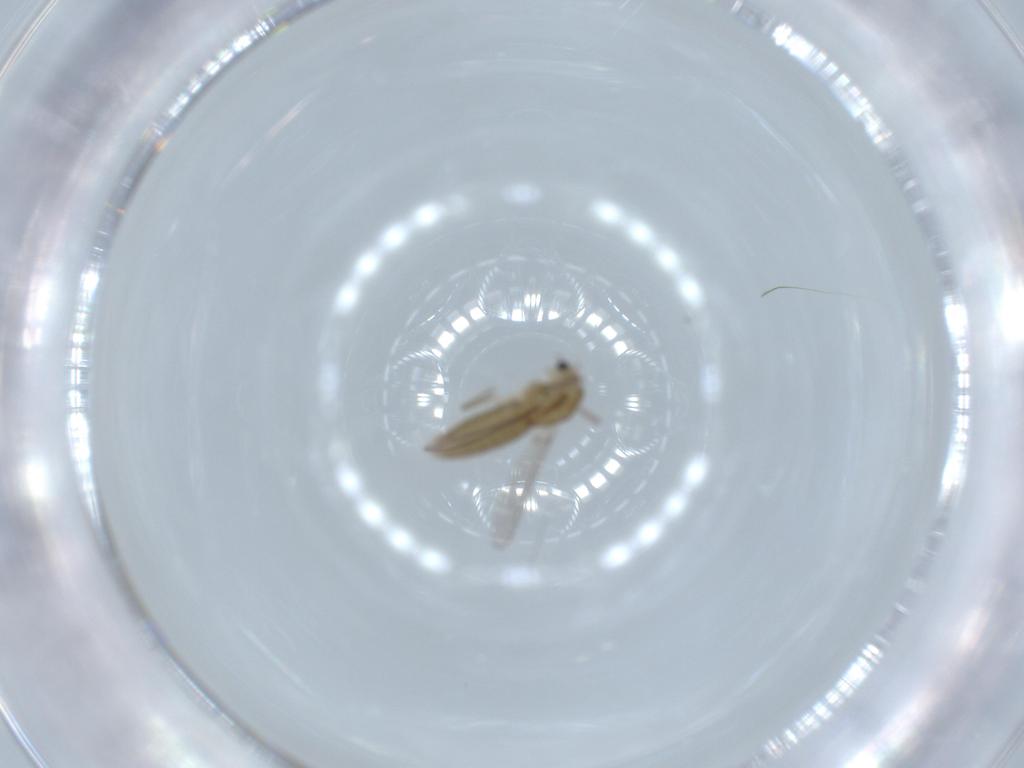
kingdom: Animalia
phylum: Arthropoda
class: Insecta
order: Diptera
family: Chironomidae
